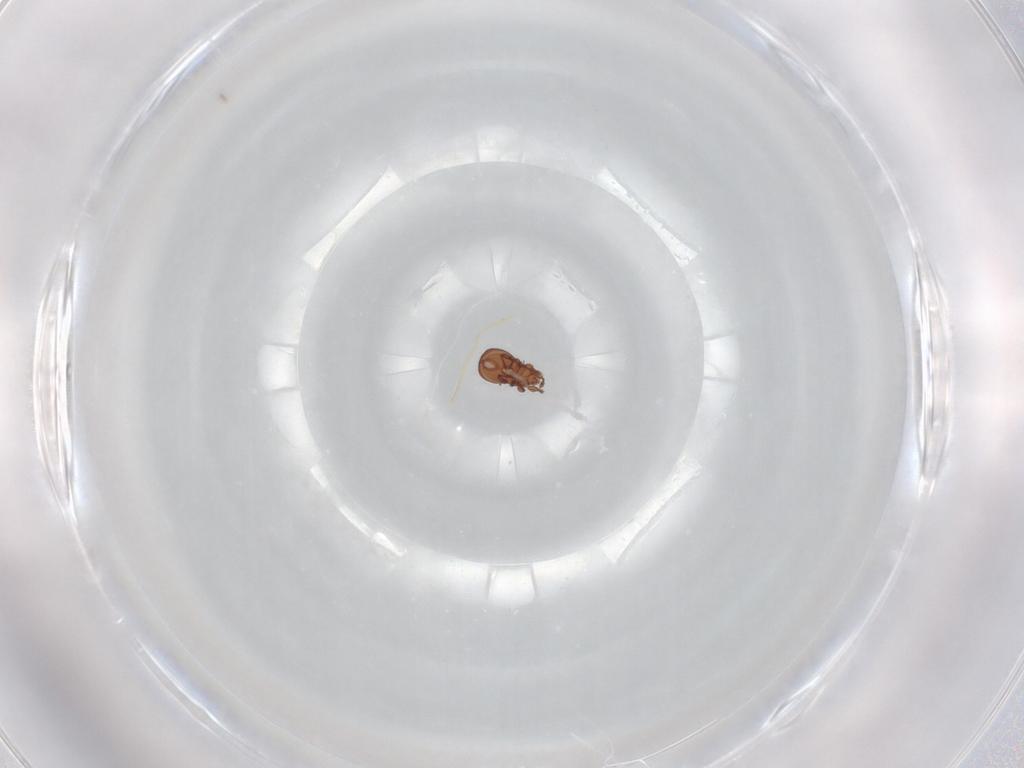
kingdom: Animalia
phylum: Arthropoda
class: Arachnida
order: Sarcoptiformes
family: Eremaeidae
